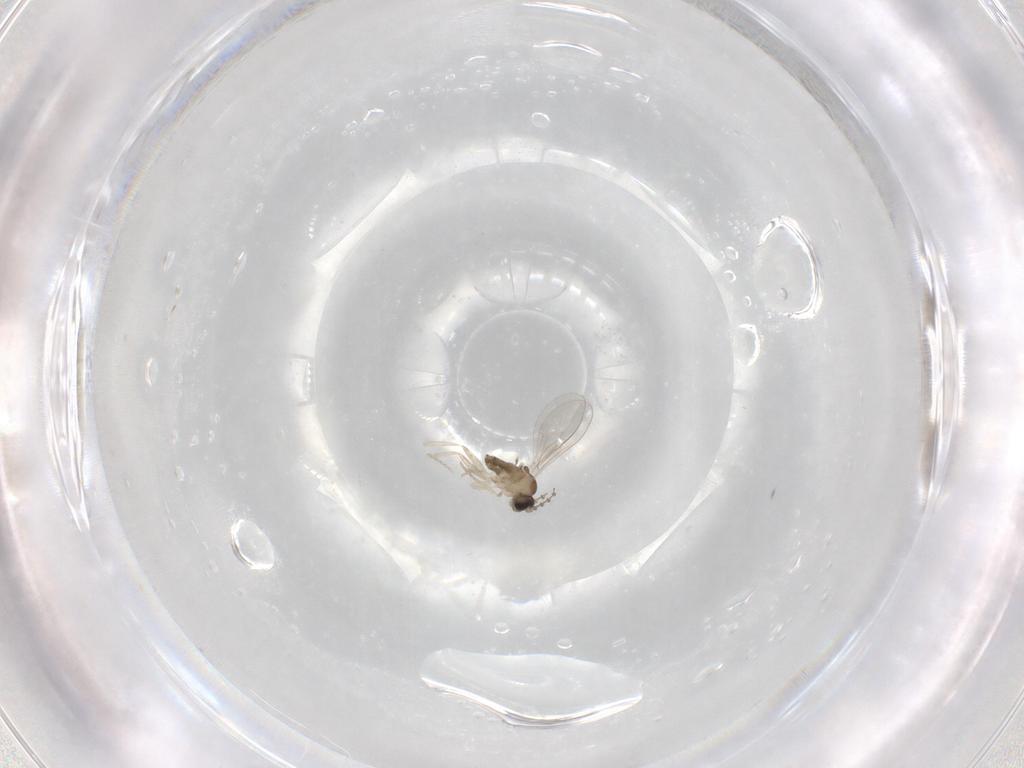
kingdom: Animalia
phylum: Arthropoda
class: Insecta
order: Diptera
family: Cecidomyiidae
